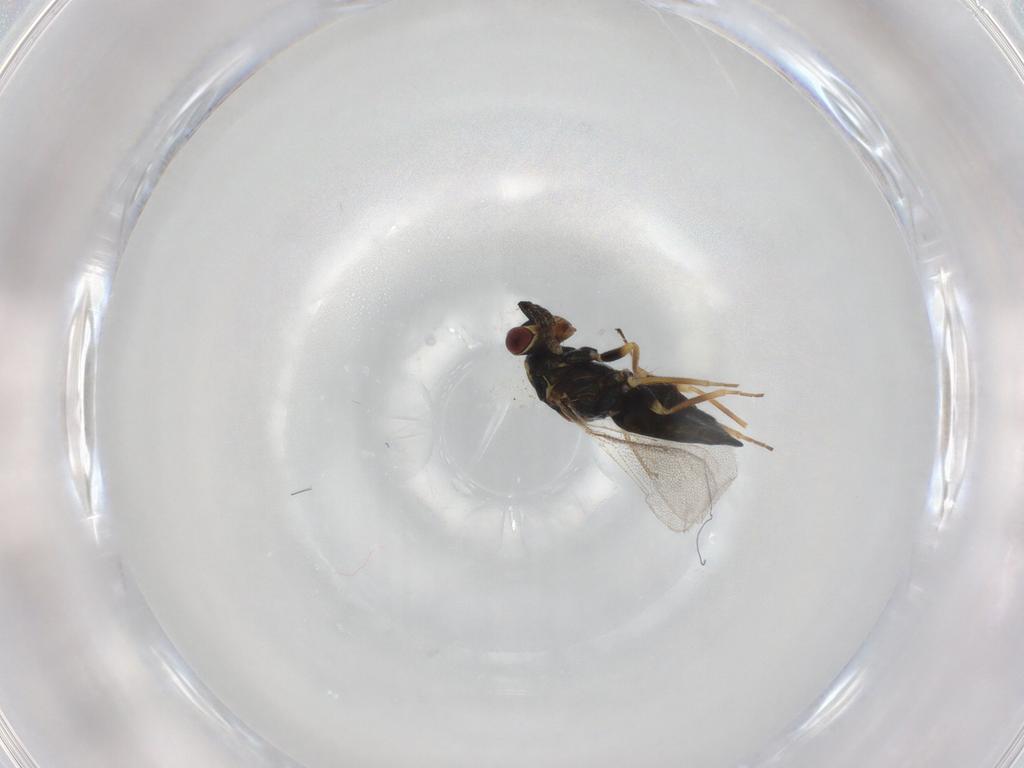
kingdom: Animalia
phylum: Arthropoda
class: Insecta
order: Hymenoptera
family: Eulophidae
